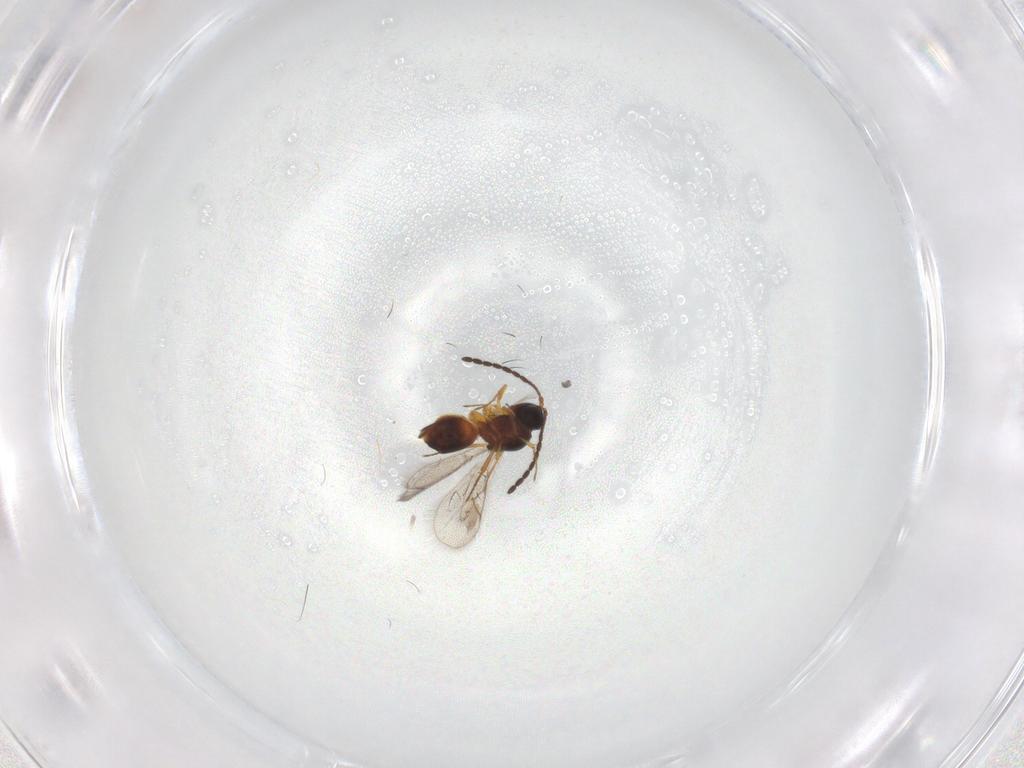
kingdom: Animalia
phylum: Arthropoda
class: Insecta
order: Hymenoptera
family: Figitidae
